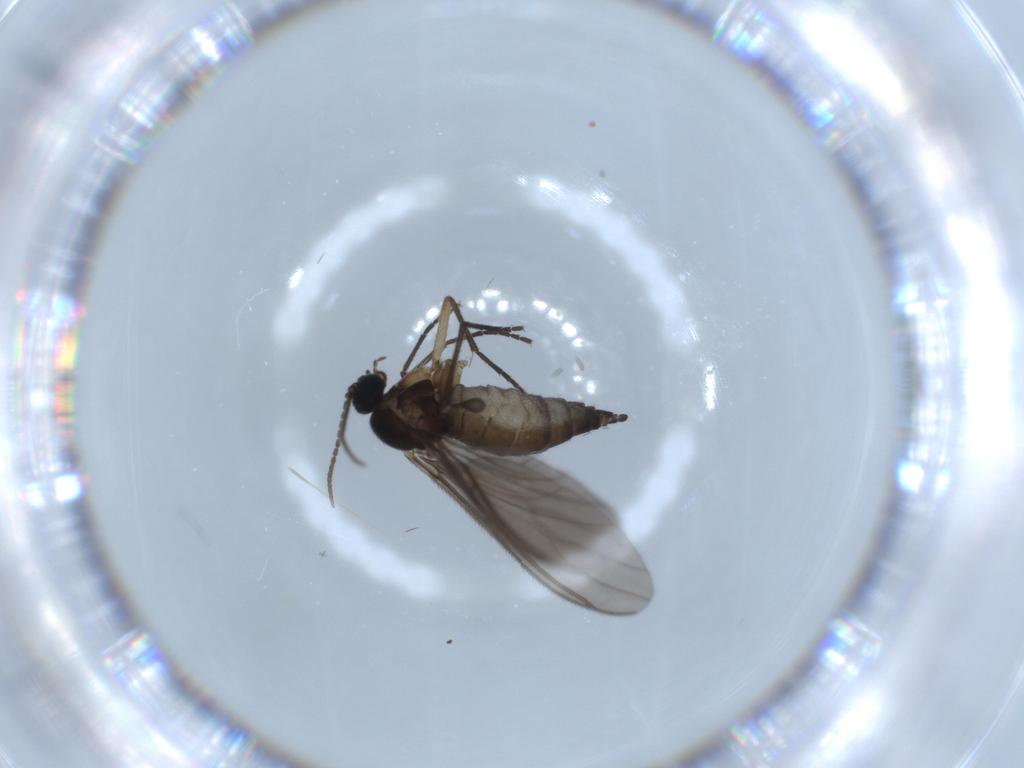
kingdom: Animalia
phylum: Arthropoda
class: Insecta
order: Diptera
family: Sciaridae
